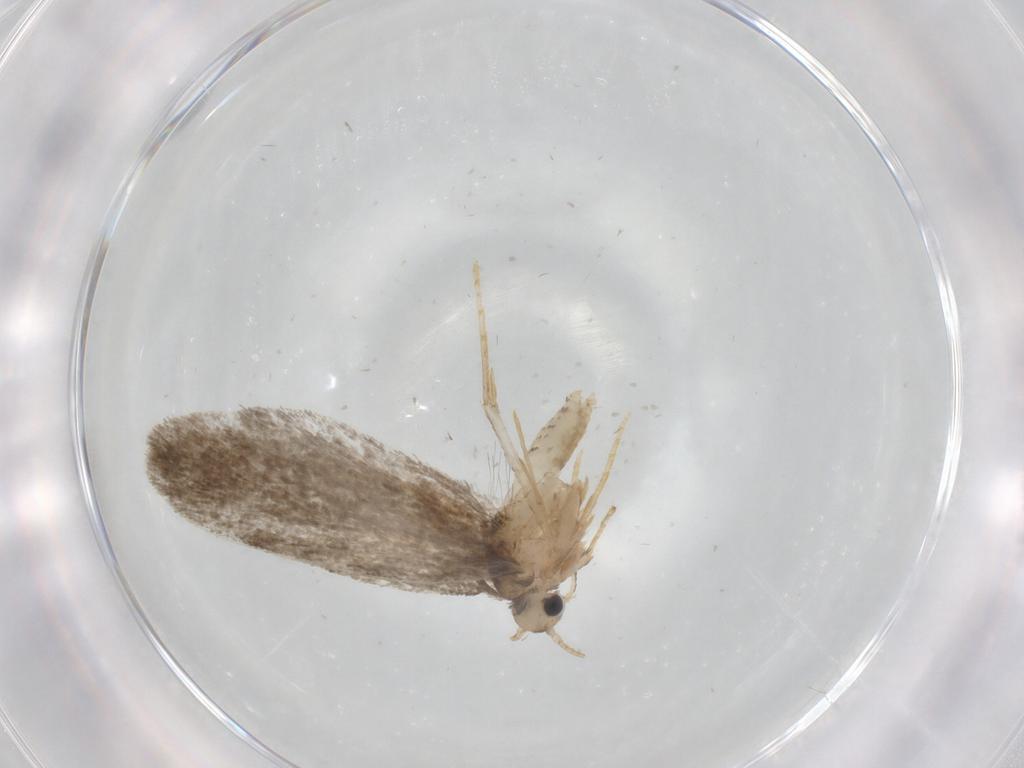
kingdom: Animalia
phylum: Arthropoda
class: Insecta
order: Lepidoptera
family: Psychidae
